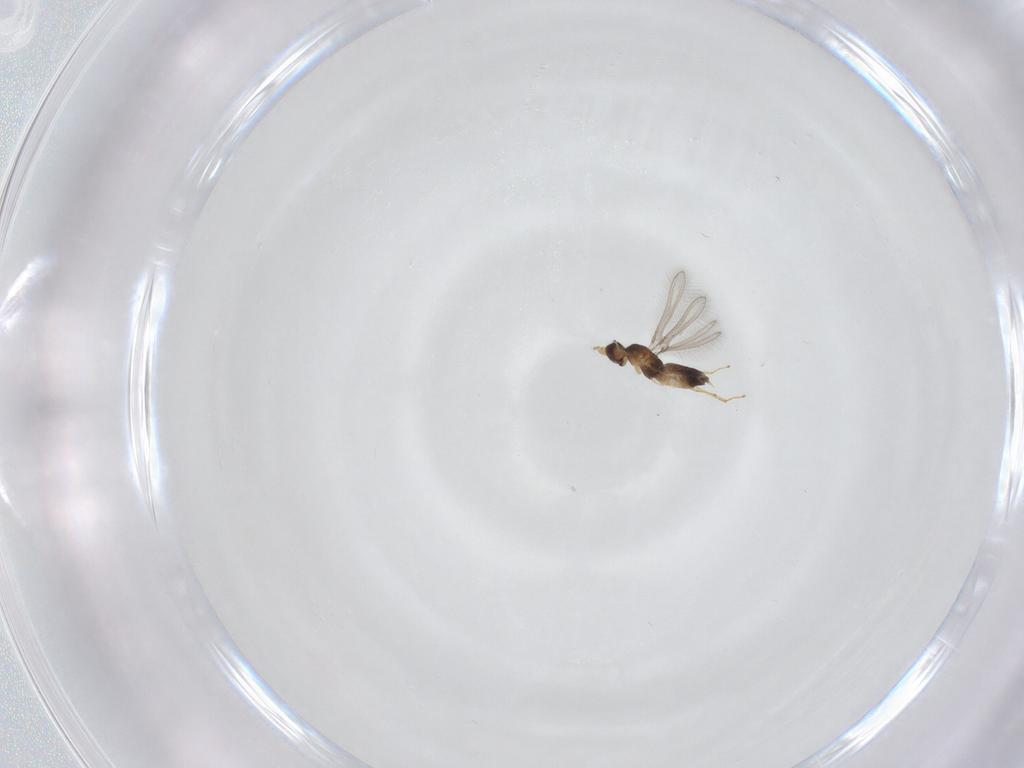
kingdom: Animalia
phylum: Arthropoda
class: Insecta
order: Hymenoptera
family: Mymaridae
